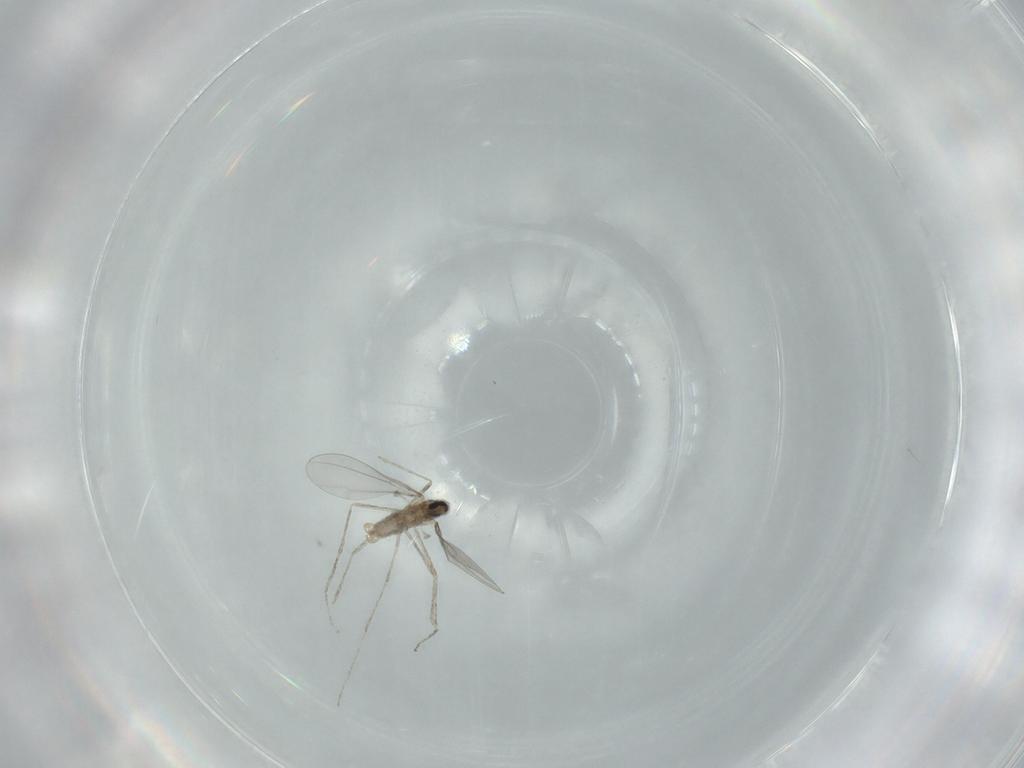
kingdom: Animalia
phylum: Arthropoda
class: Insecta
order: Diptera
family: Cecidomyiidae
